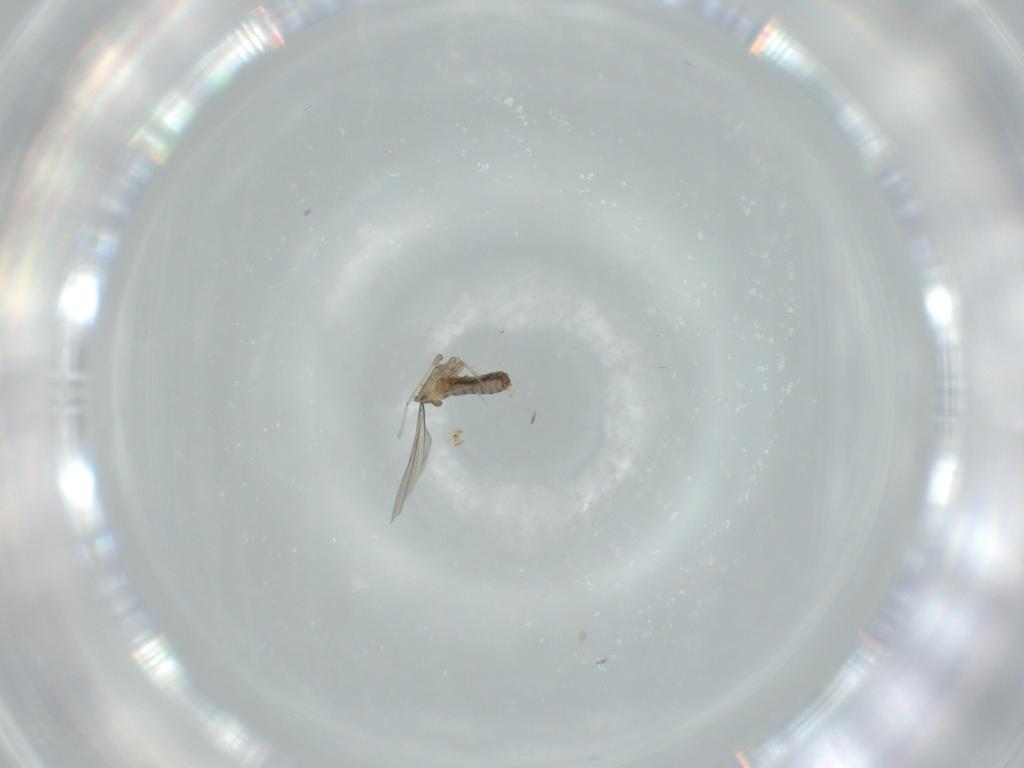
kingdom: Animalia
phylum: Arthropoda
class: Insecta
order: Diptera
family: Cecidomyiidae
